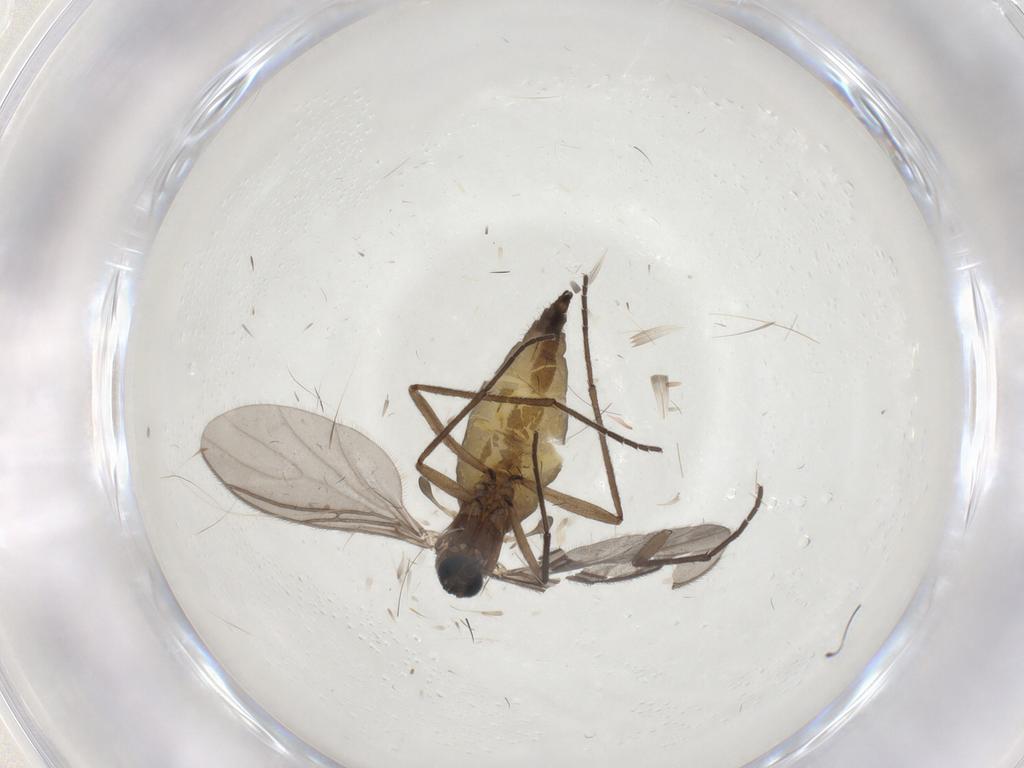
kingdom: Animalia
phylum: Arthropoda
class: Insecta
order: Diptera
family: Sciaridae
